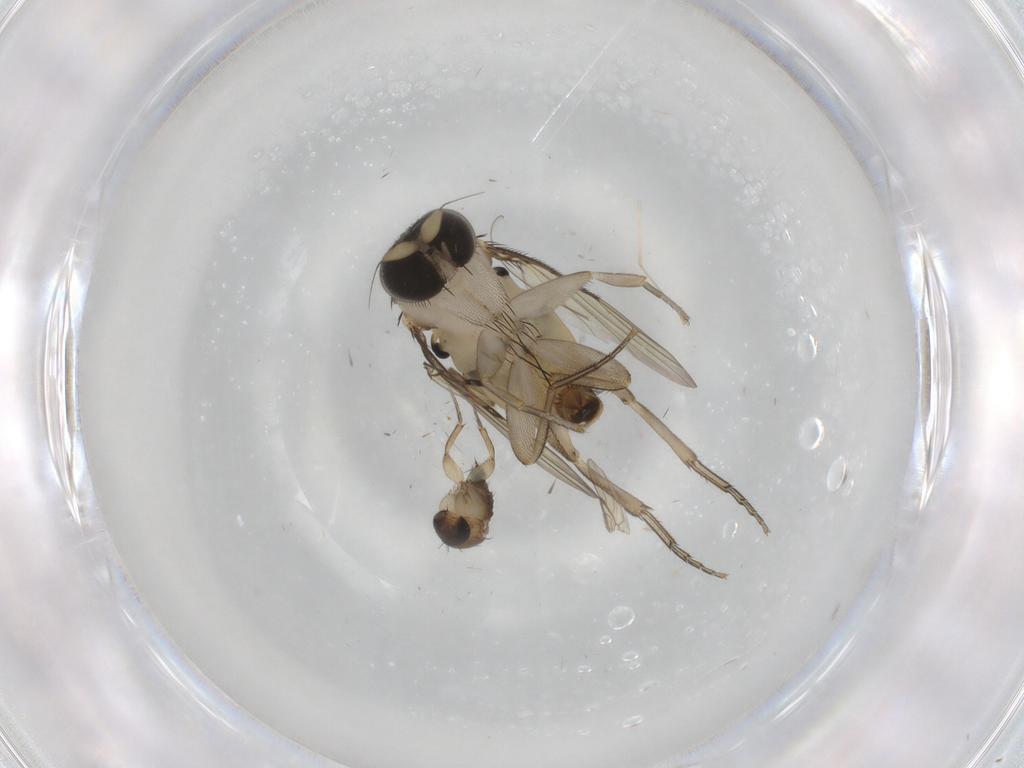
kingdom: Animalia
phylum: Arthropoda
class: Insecta
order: Diptera
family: Phoridae
